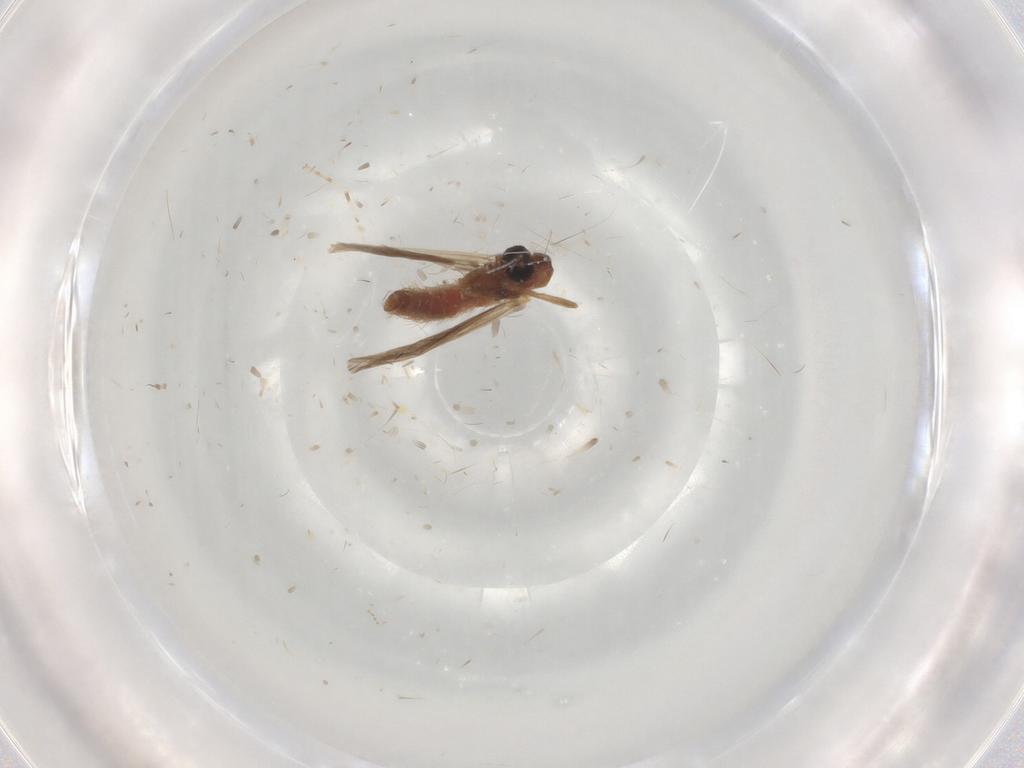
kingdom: Animalia
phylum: Arthropoda
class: Insecta
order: Diptera
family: Chironomidae
